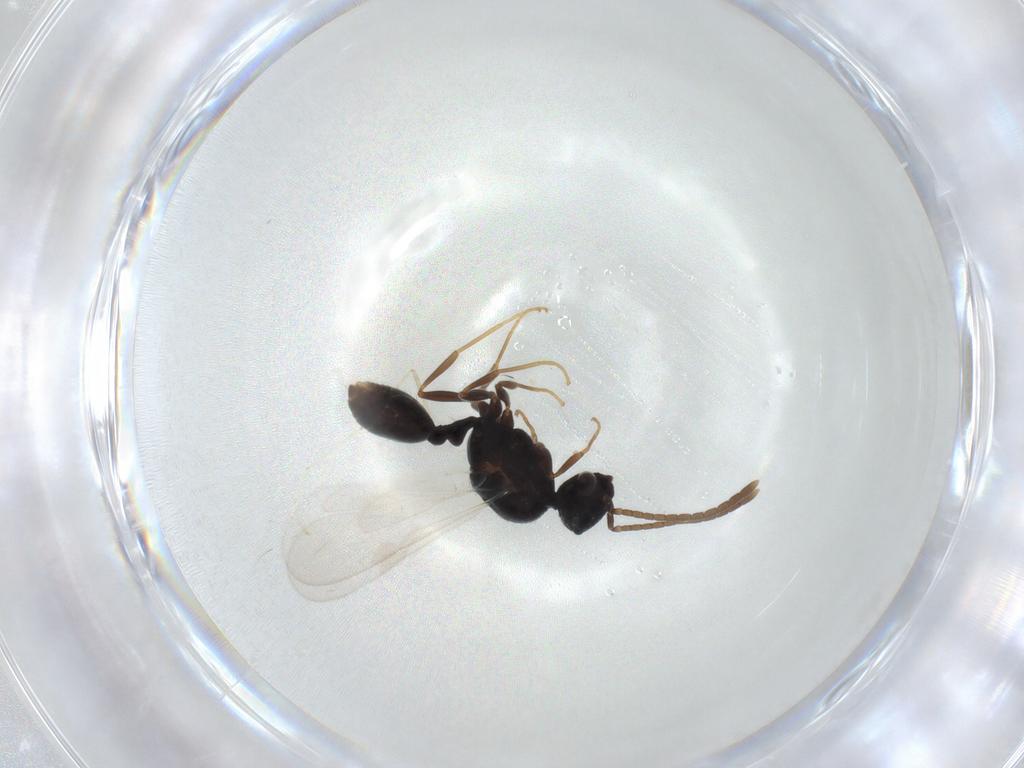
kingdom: Animalia
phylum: Arthropoda
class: Insecta
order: Hymenoptera
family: Formicidae
